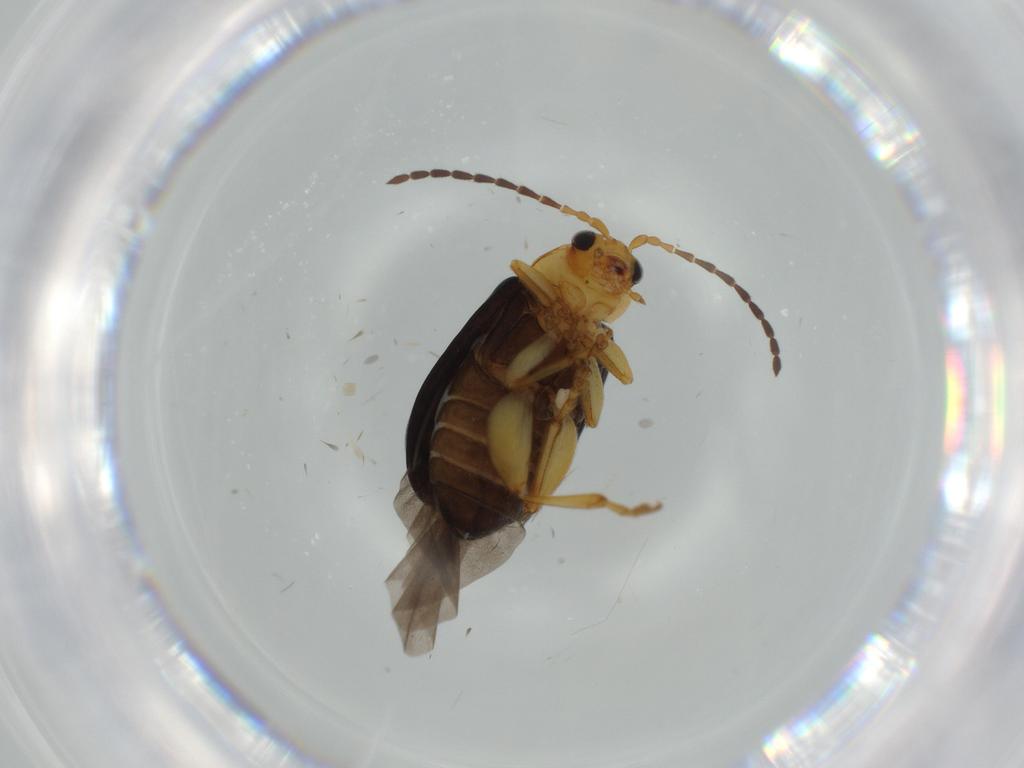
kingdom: Animalia
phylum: Arthropoda
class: Insecta
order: Coleoptera
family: Chrysomelidae
